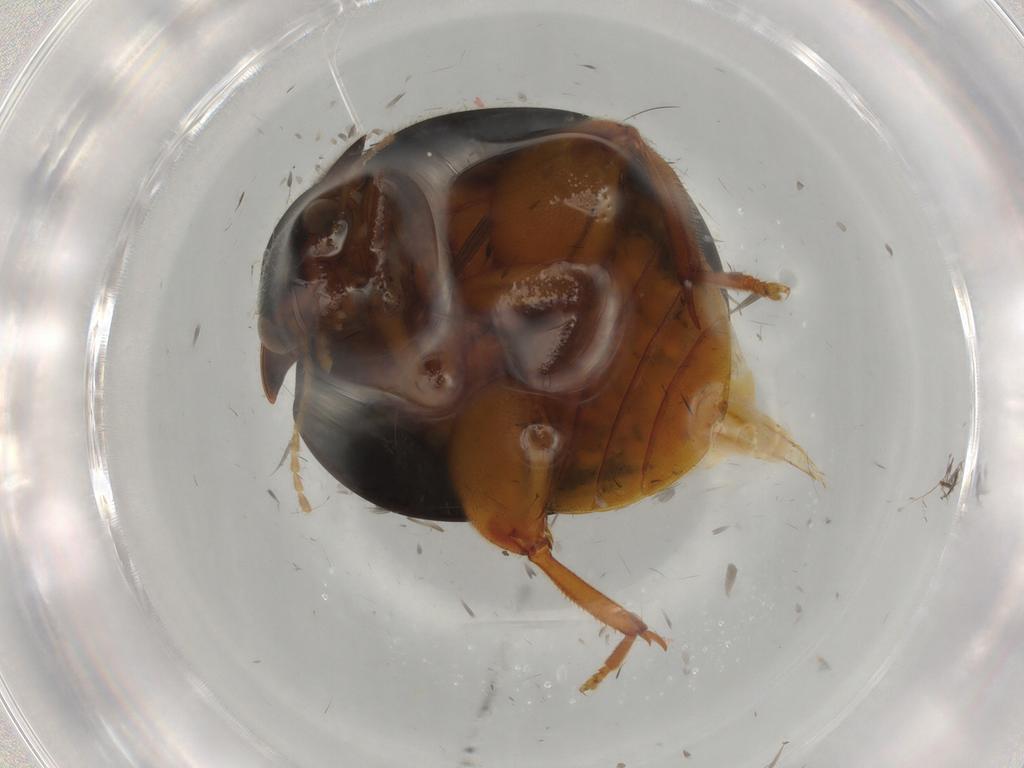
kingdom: Animalia
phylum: Arthropoda
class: Insecta
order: Coleoptera
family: Scirtidae
